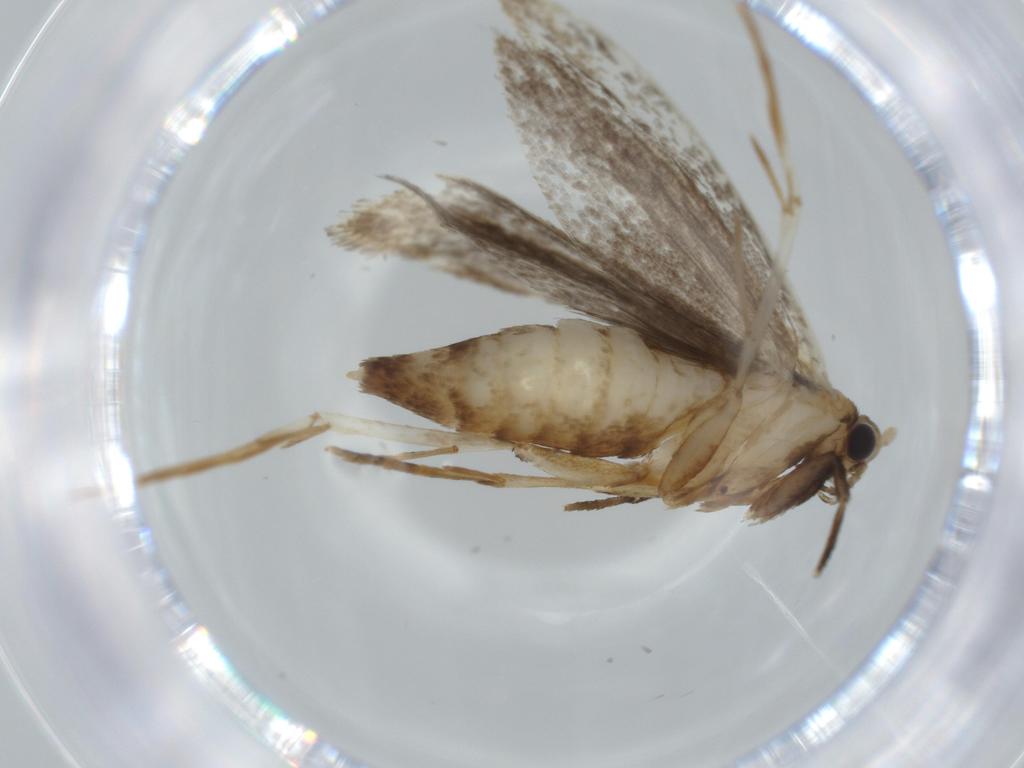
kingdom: Animalia
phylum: Arthropoda
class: Insecta
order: Lepidoptera
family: Tineidae
